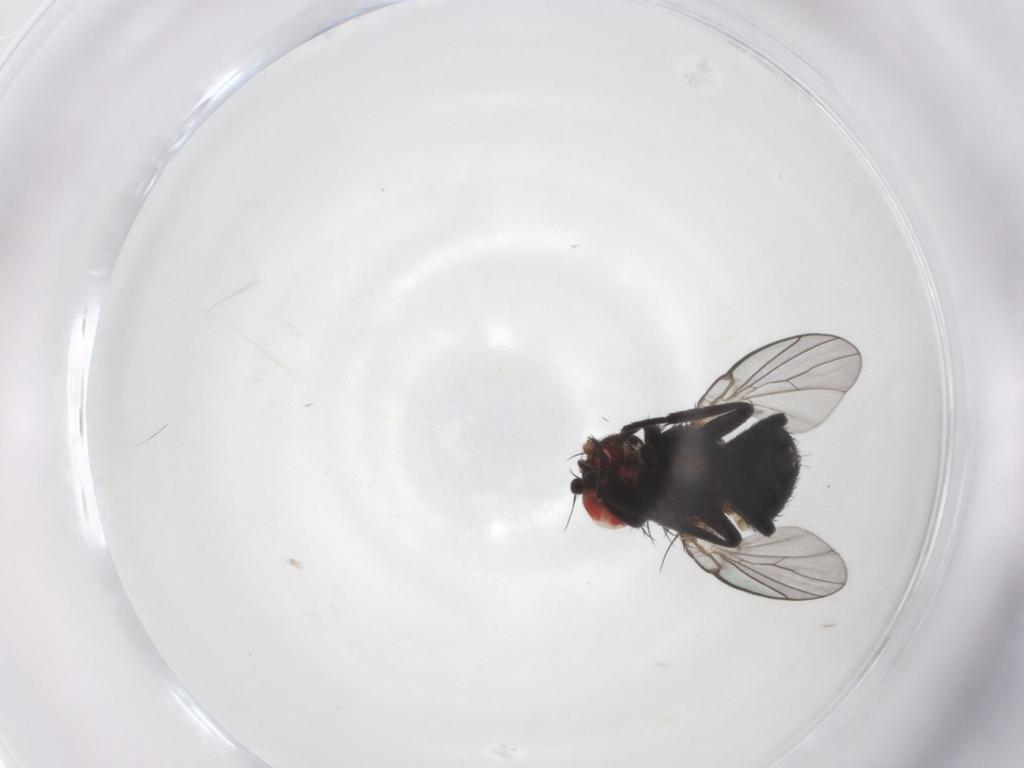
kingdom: Animalia
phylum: Arthropoda
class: Insecta
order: Diptera
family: Agromyzidae
